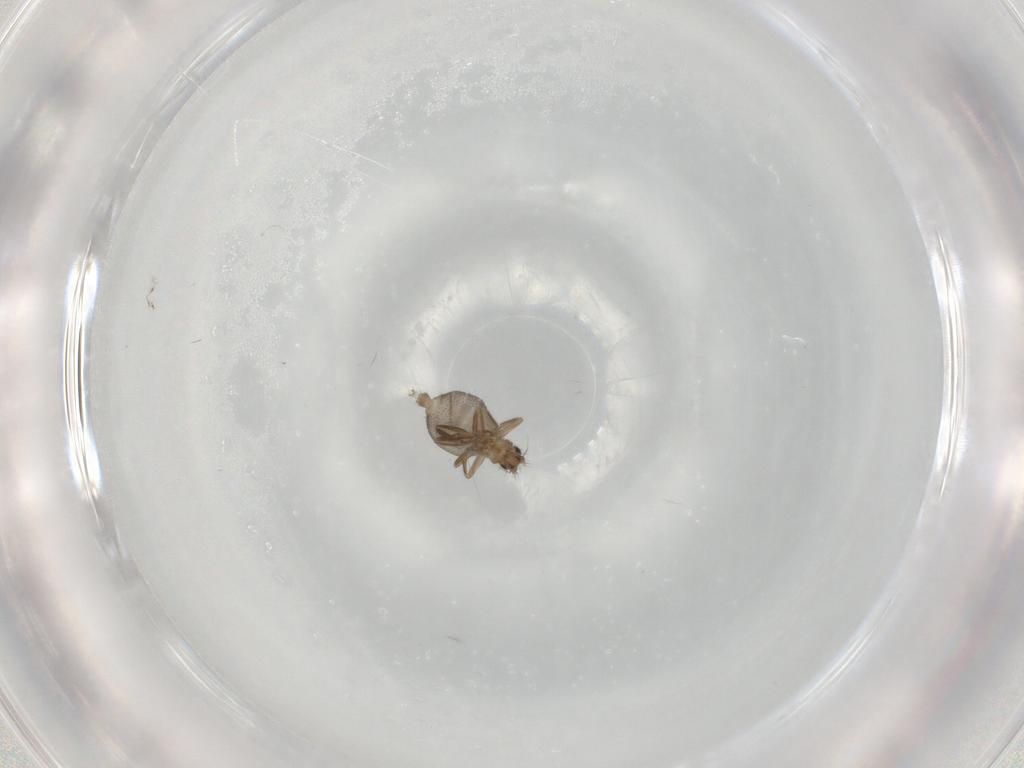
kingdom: Animalia
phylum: Arthropoda
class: Insecta
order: Diptera
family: Phoridae
